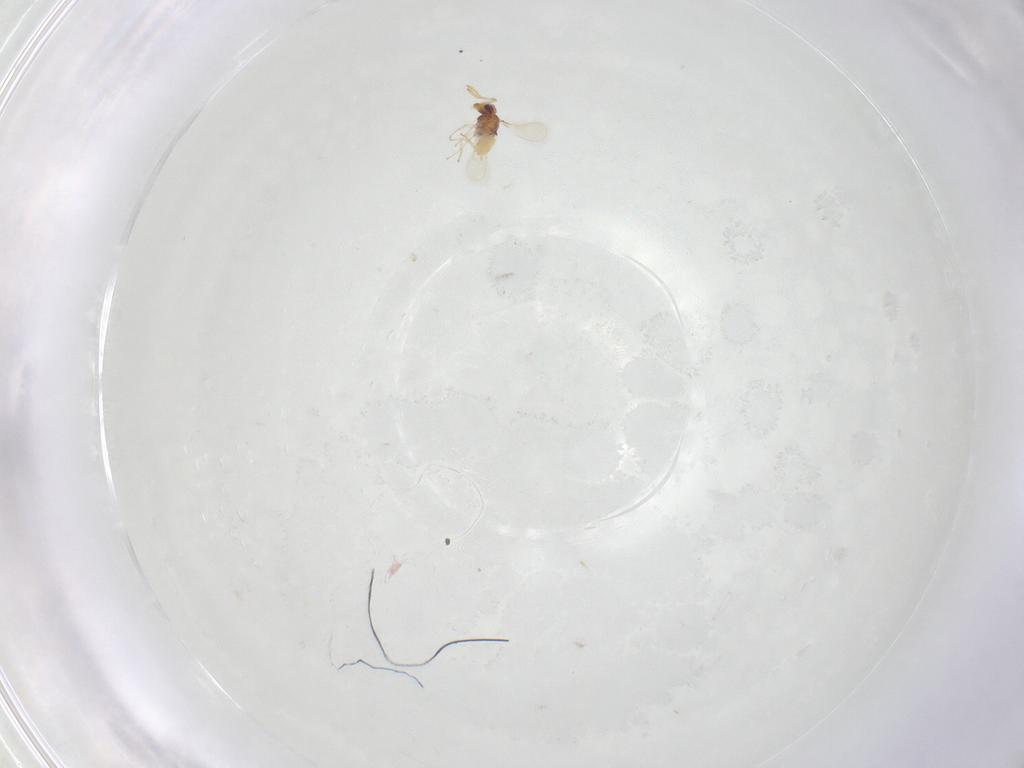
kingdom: Animalia
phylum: Arthropoda
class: Insecta
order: Hymenoptera
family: Aphelinidae
